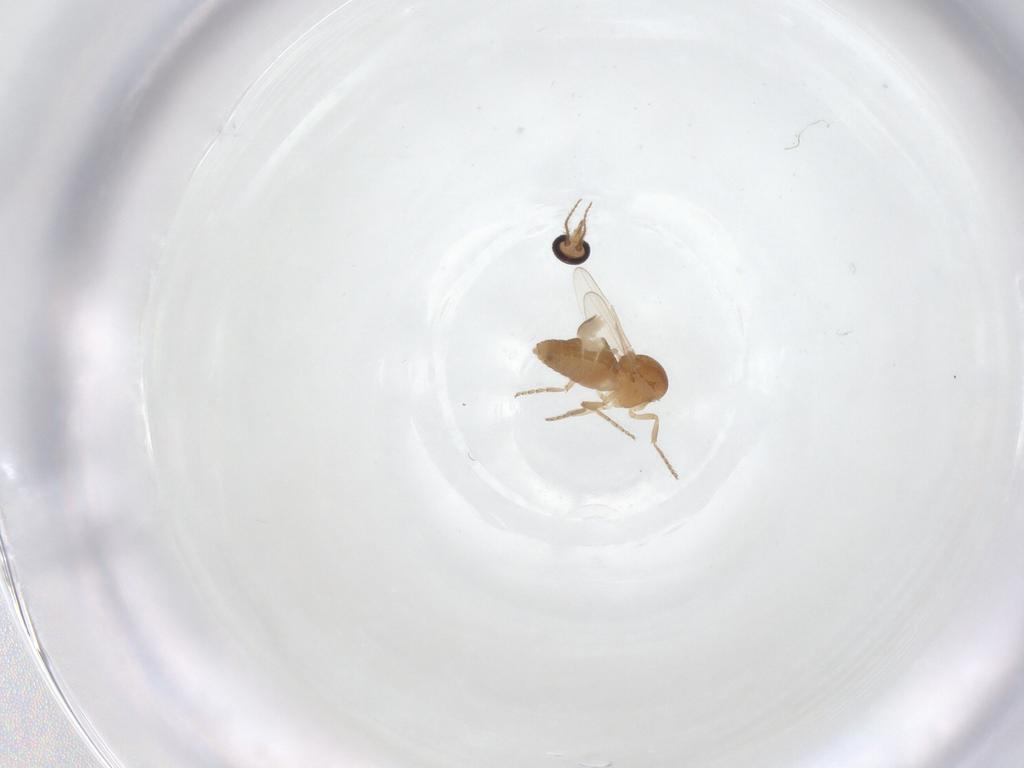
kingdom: Animalia
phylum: Arthropoda
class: Insecta
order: Diptera
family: Ceratopogonidae
